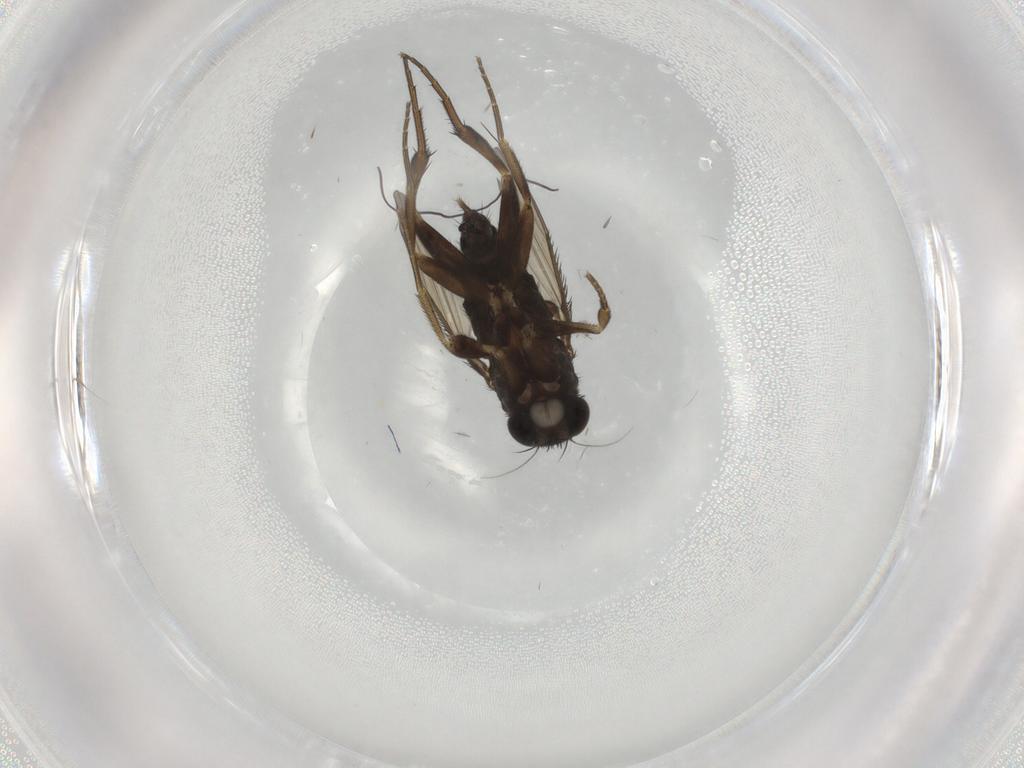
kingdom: Animalia
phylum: Arthropoda
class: Insecta
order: Diptera
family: Phoridae
